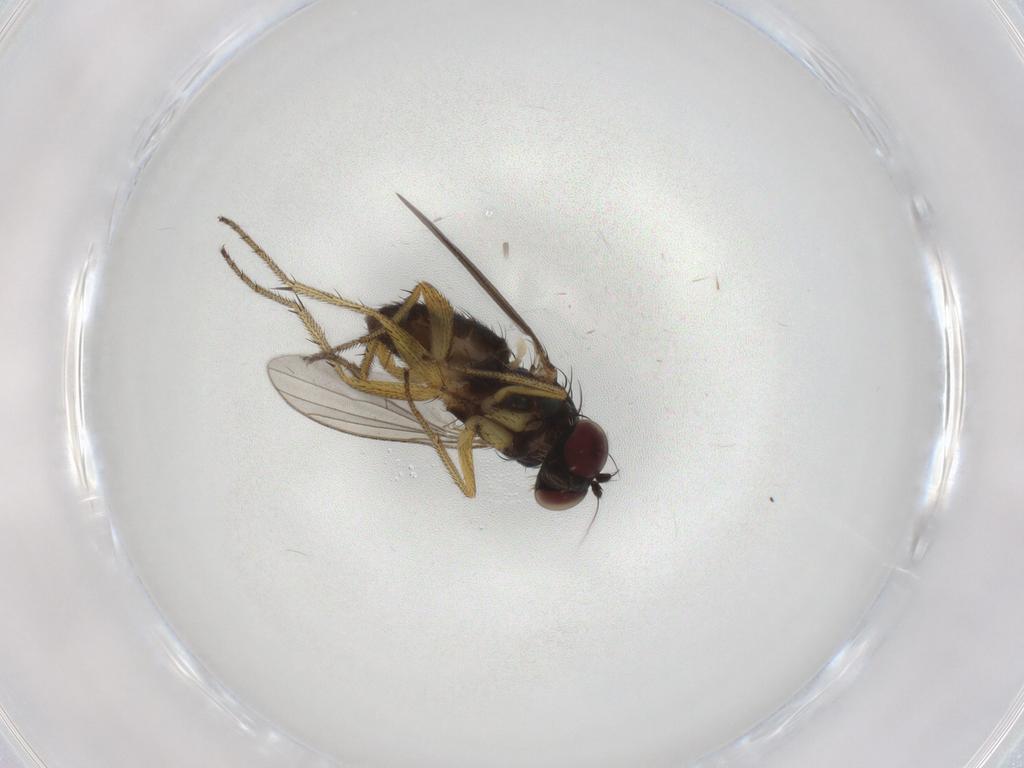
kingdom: Animalia
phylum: Arthropoda
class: Insecta
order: Diptera
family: Dolichopodidae
